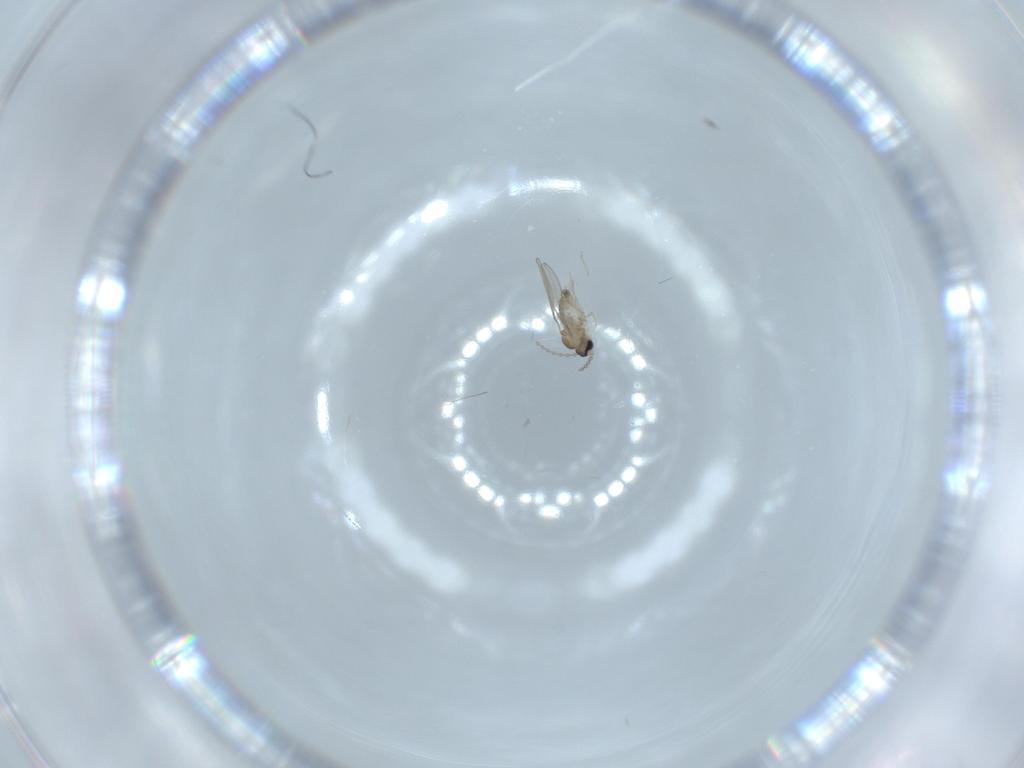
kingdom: Animalia
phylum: Arthropoda
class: Insecta
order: Diptera
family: Cecidomyiidae
